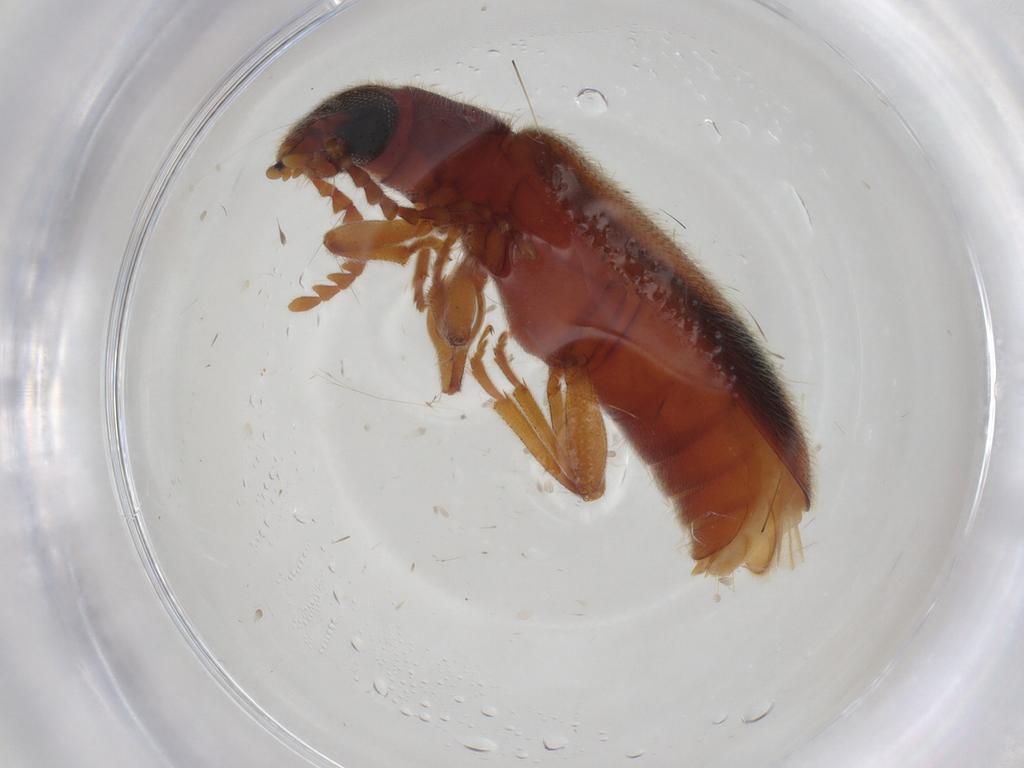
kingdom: Animalia
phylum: Arthropoda
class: Insecta
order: Coleoptera
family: Mycteridae
